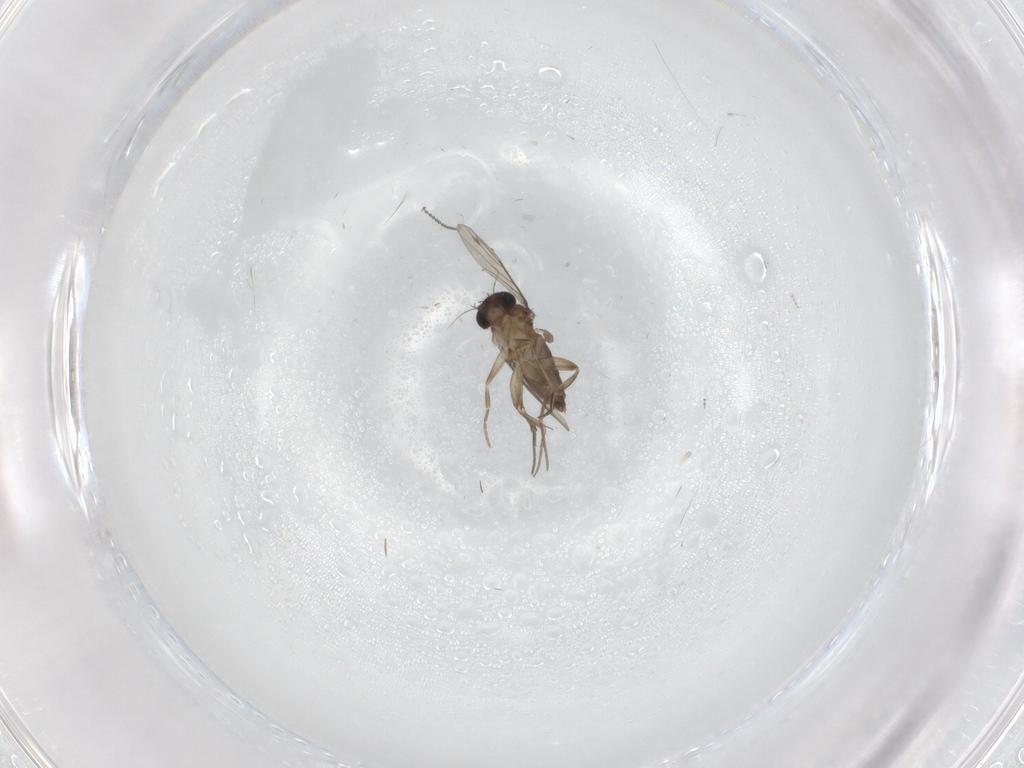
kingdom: Animalia
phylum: Arthropoda
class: Insecta
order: Diptera
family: Phoridae
